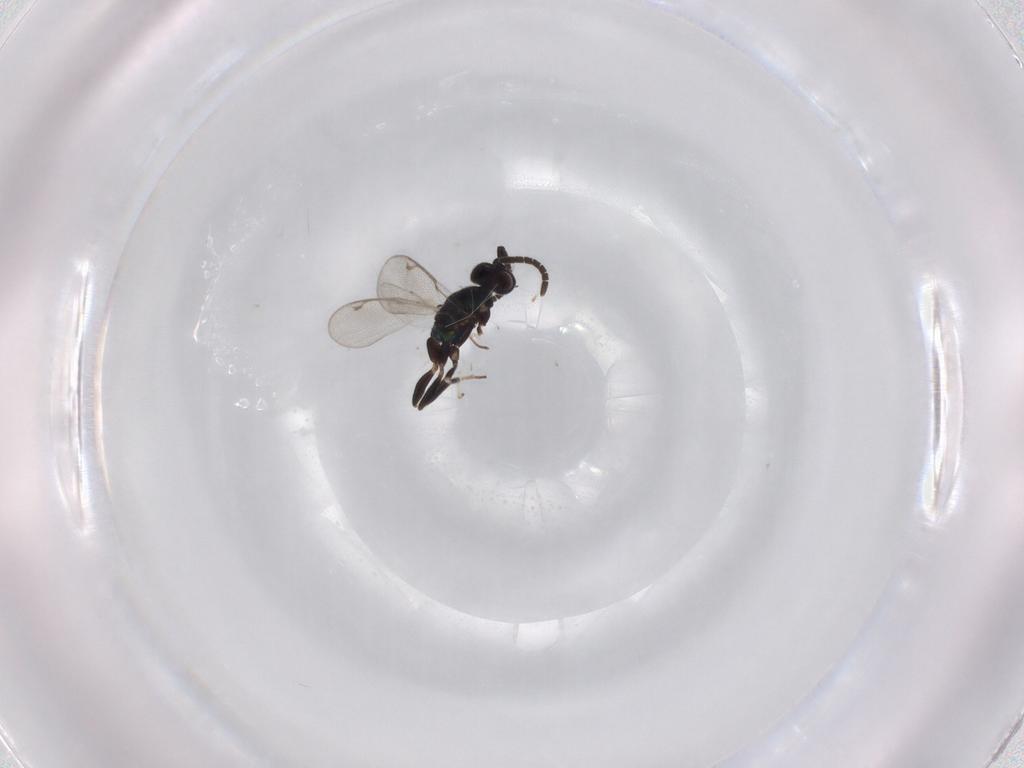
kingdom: Animalia
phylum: Arthropoda
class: Insecta
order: Hymenoptera
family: Eupelmidae
